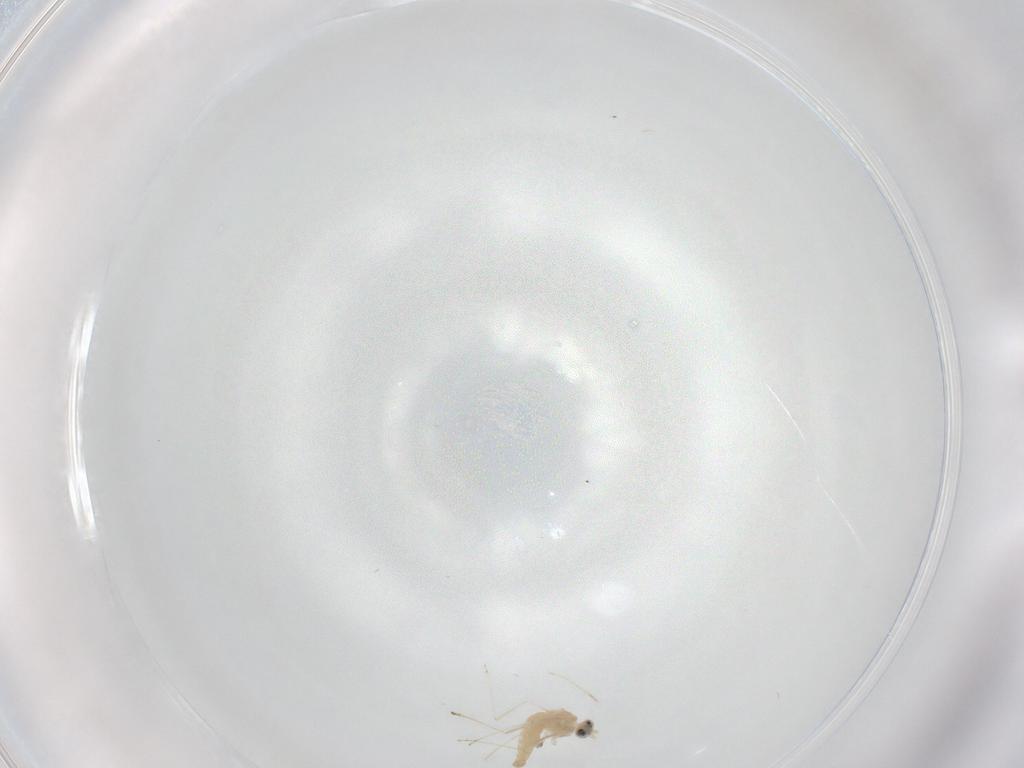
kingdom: Animalia
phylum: Arthropoda
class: Insecta
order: Diptera
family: Cecidomyiidae
